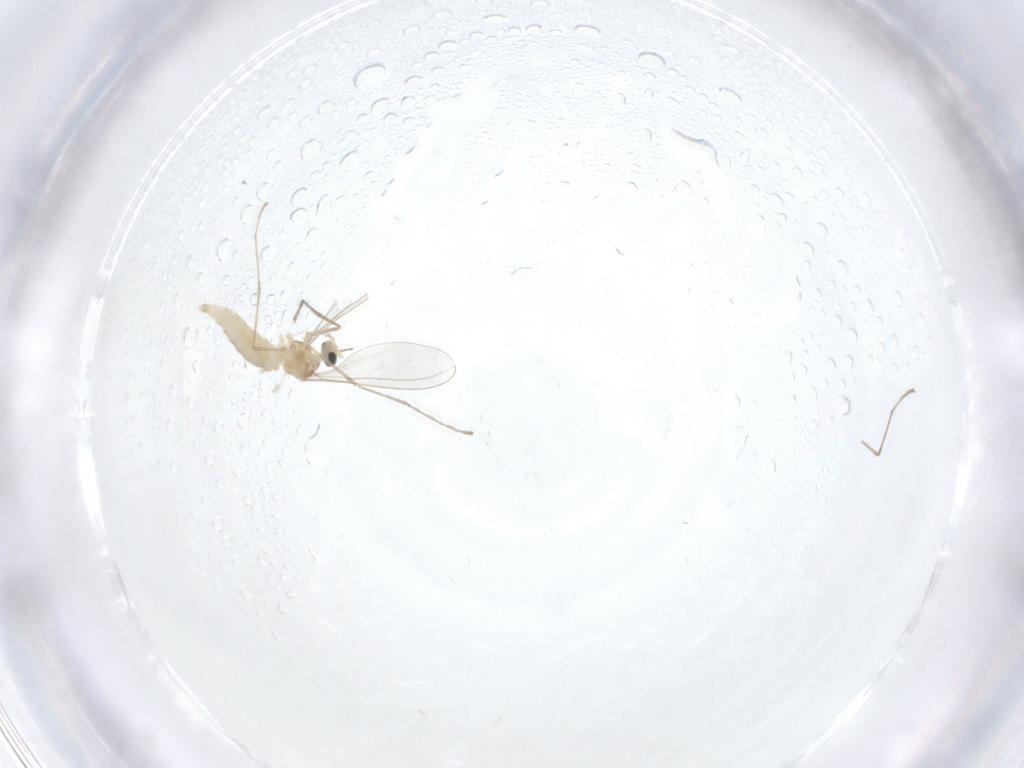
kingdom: Animalia
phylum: Arthropoda
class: Insecta
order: Diptera
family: Cecidomyiidae
